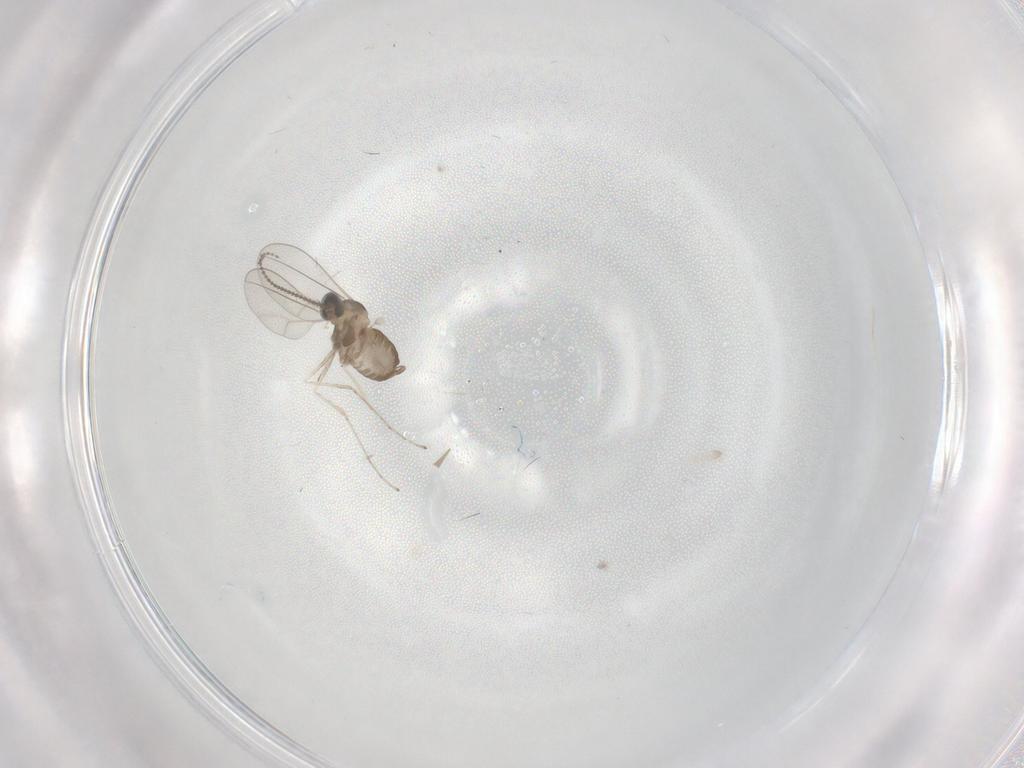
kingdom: Animalia
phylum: Arthropoda
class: Insecta
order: Diptera
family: Cecidomyiidae
